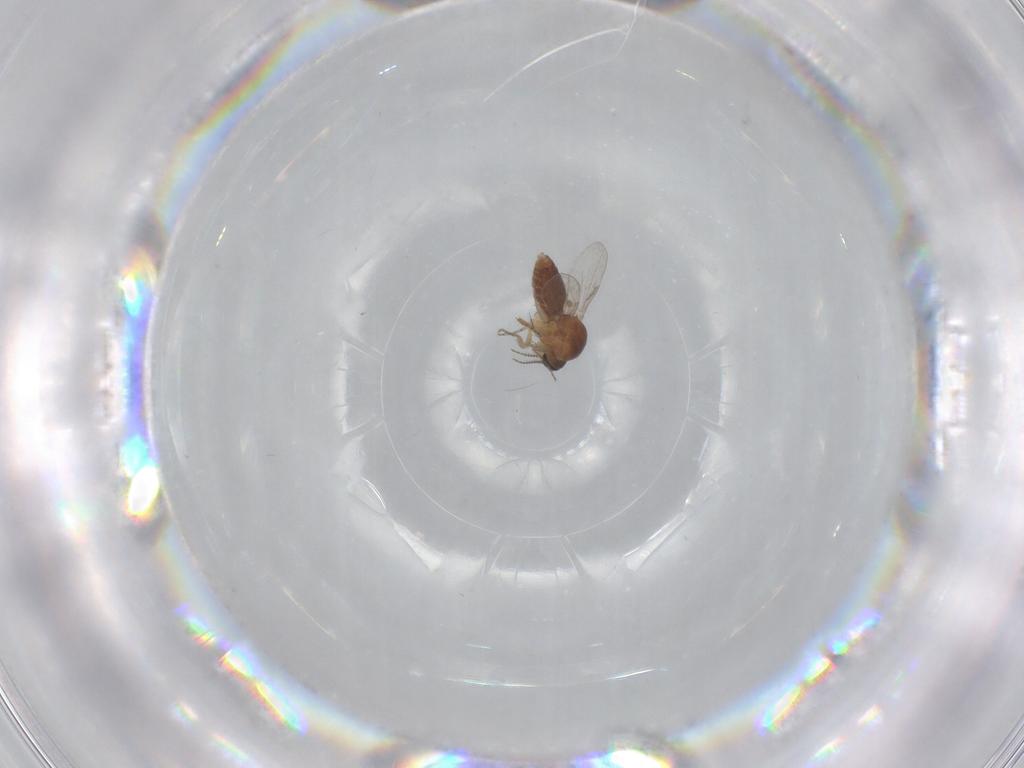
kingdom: Animalia
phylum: Arthropoda
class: Insecta
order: Diptera
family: Ceratopogonidae
